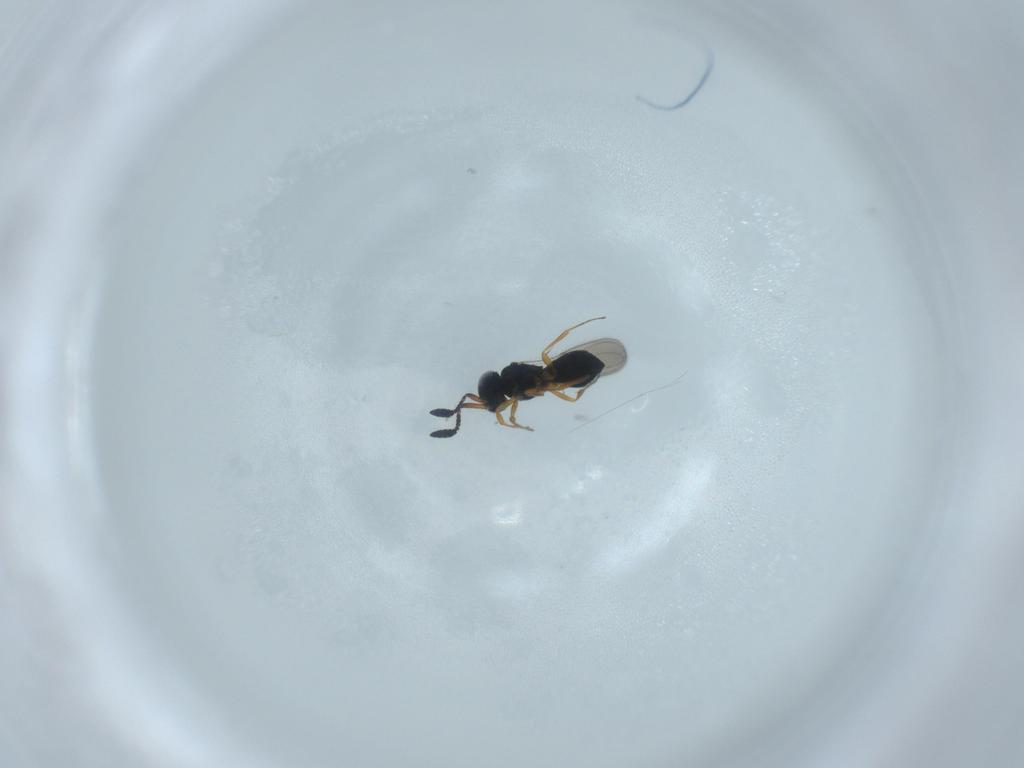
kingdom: Animalia
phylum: Arthropoda
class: Insecta
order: Hymenoptera
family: Scelionidae
